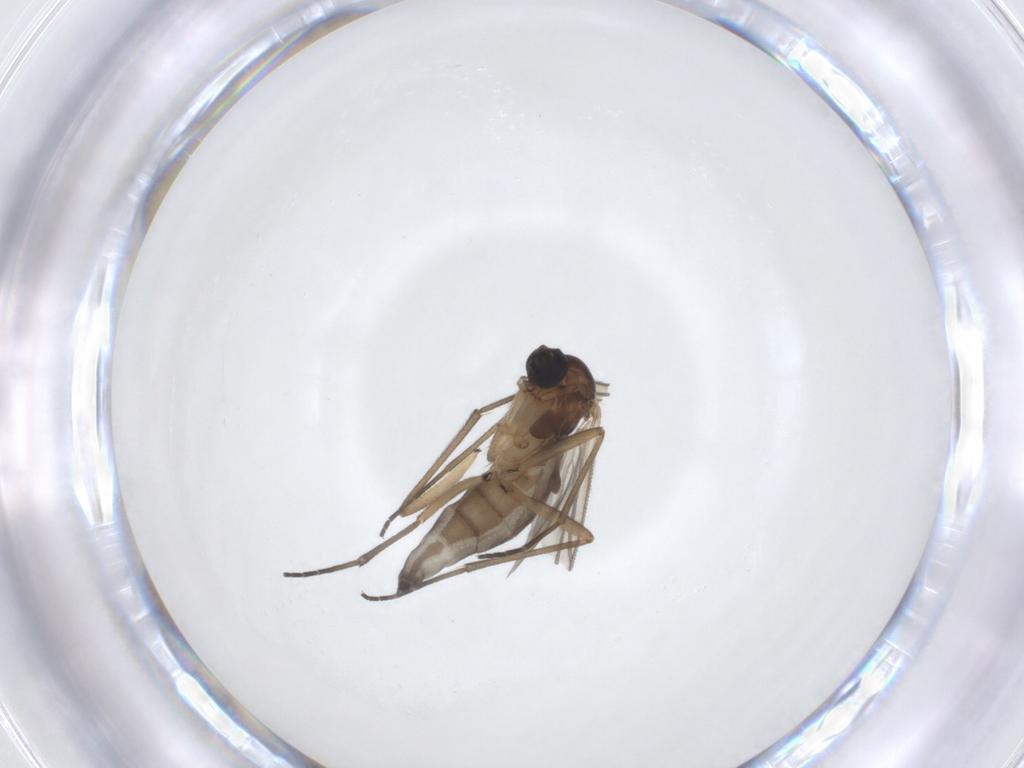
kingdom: Animalia
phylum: Arthropoda
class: Insecta
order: Diptera
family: Sciaridae
